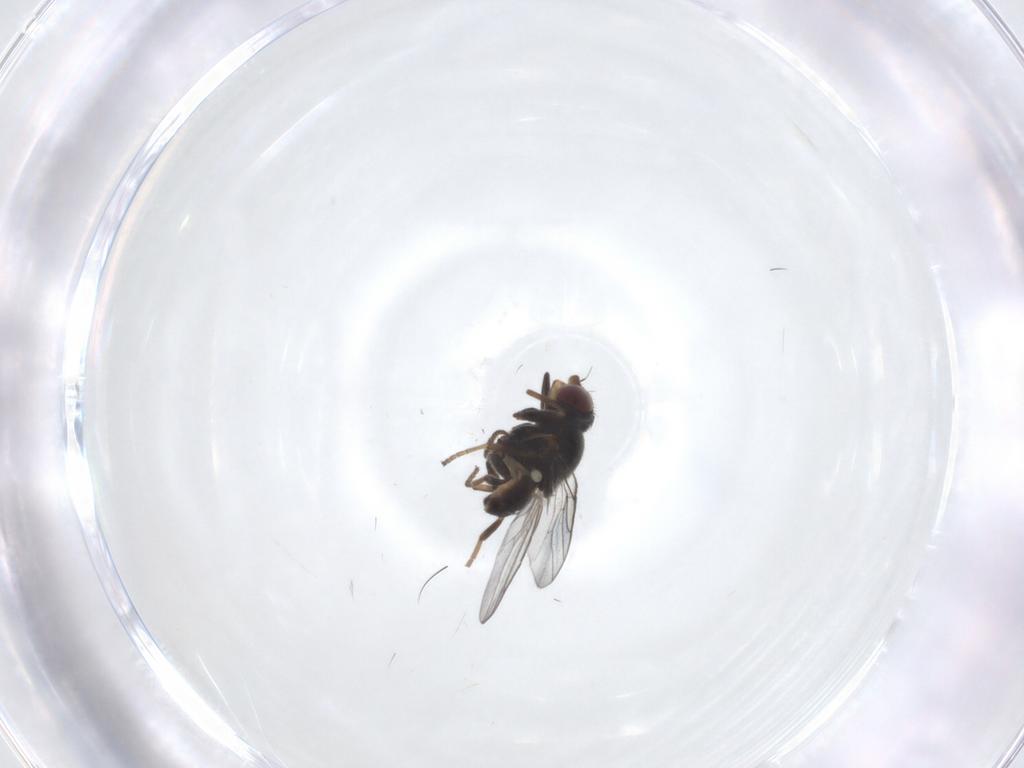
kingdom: Animalia
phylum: Arthropoda
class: Insecta
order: Diptera
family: Chloropidae
